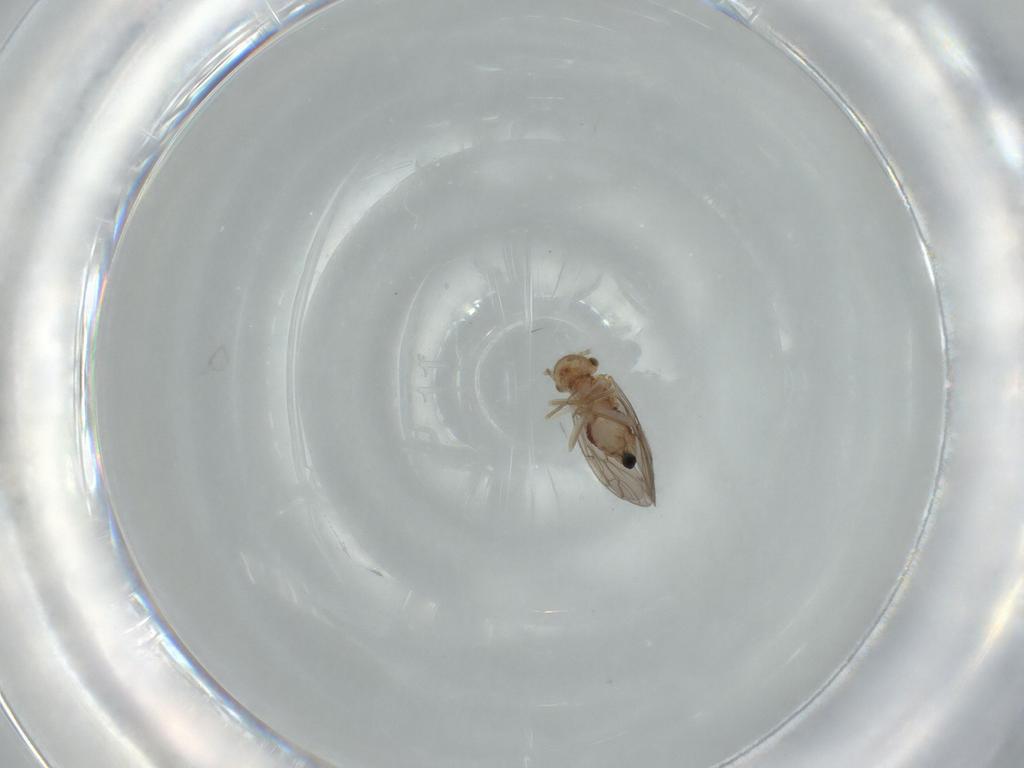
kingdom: Animalia
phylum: Arthropoda
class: Insecta
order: Psocodea
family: Ectopsocidae
